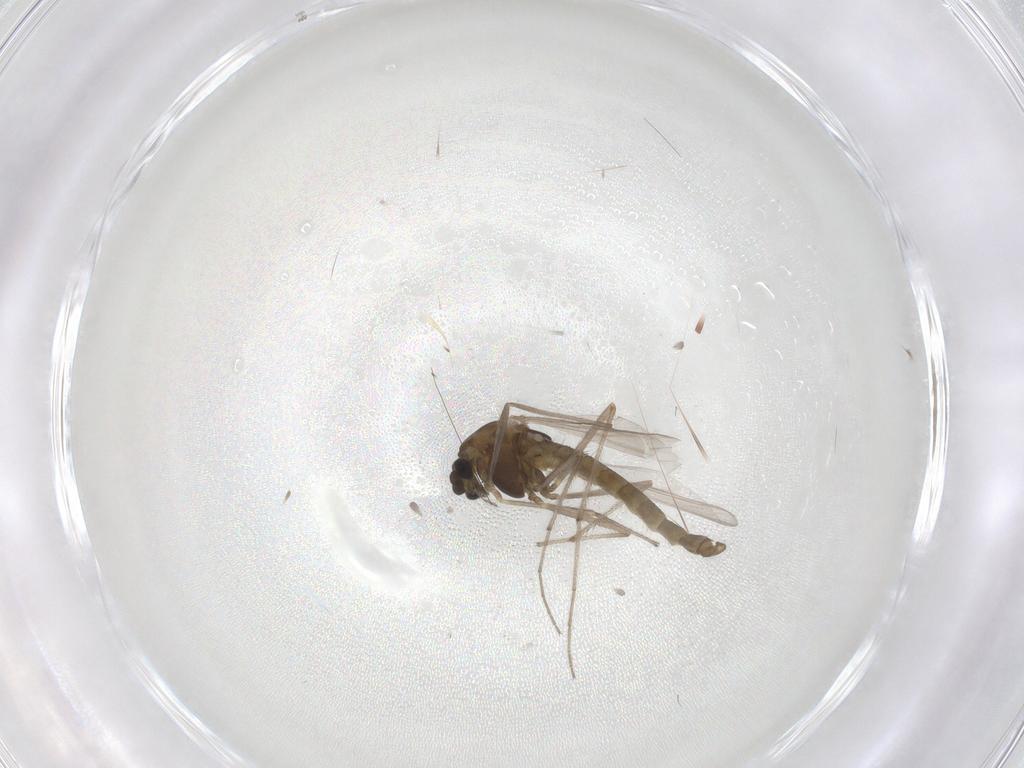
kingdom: Animalia
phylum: Arthropoda
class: Insecta
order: Diptera
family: Chironomidae
